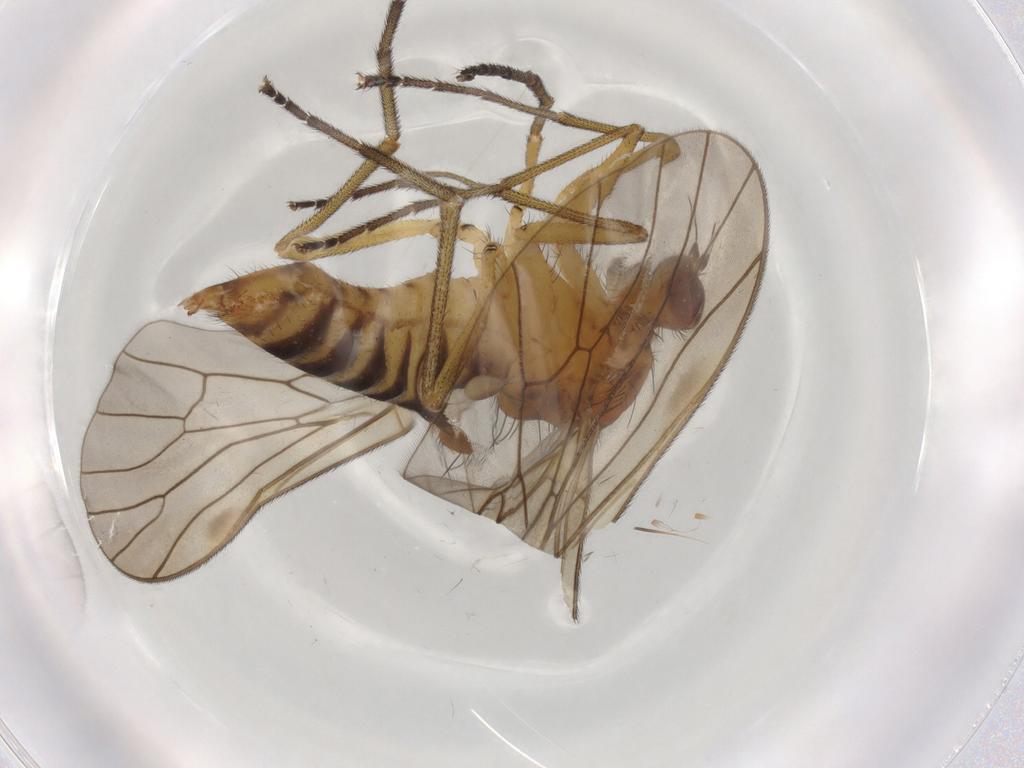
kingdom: Animalia
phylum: Arthropoda
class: Insecta
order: Diptera
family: Brachystomatidae
